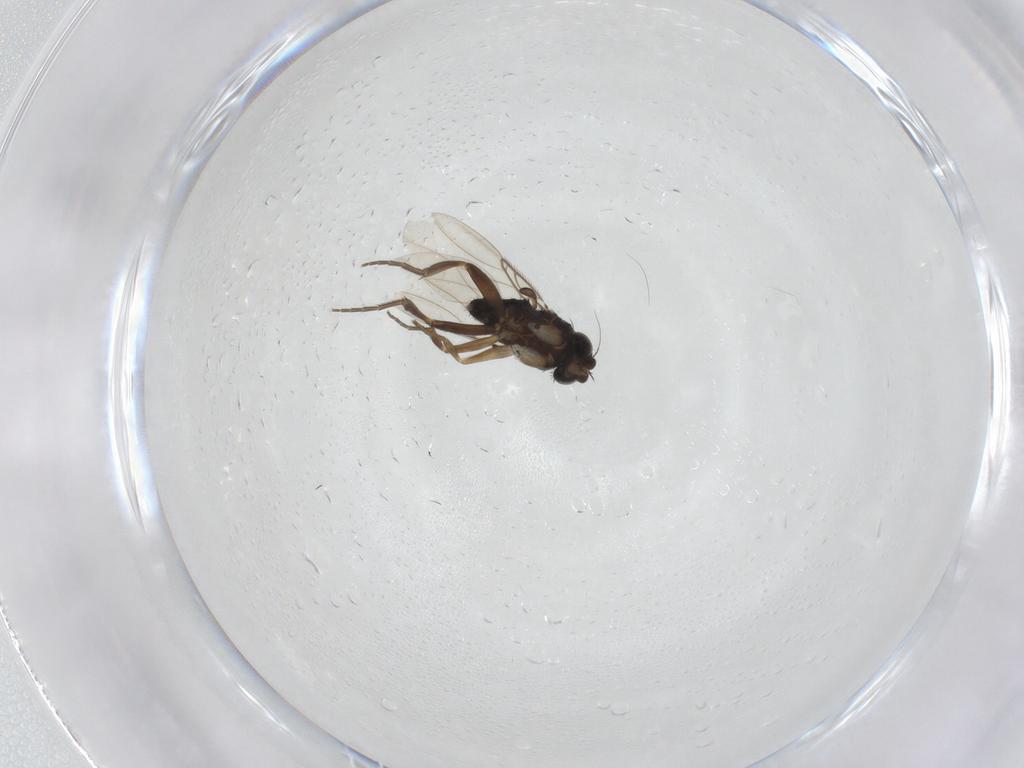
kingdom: Animalia
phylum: Arthropoda
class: Insecta
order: Diptera
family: Phoridae
